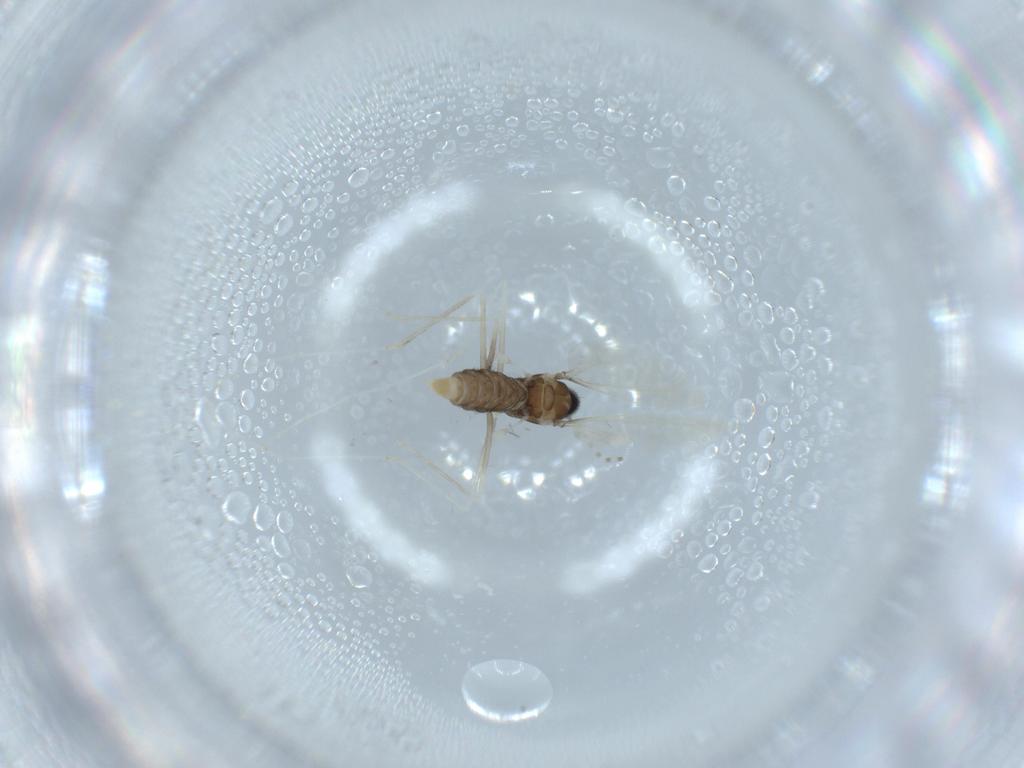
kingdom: Animalia
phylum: Arthropoda
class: Insecta
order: Diptera
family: Cecidomyiidae
